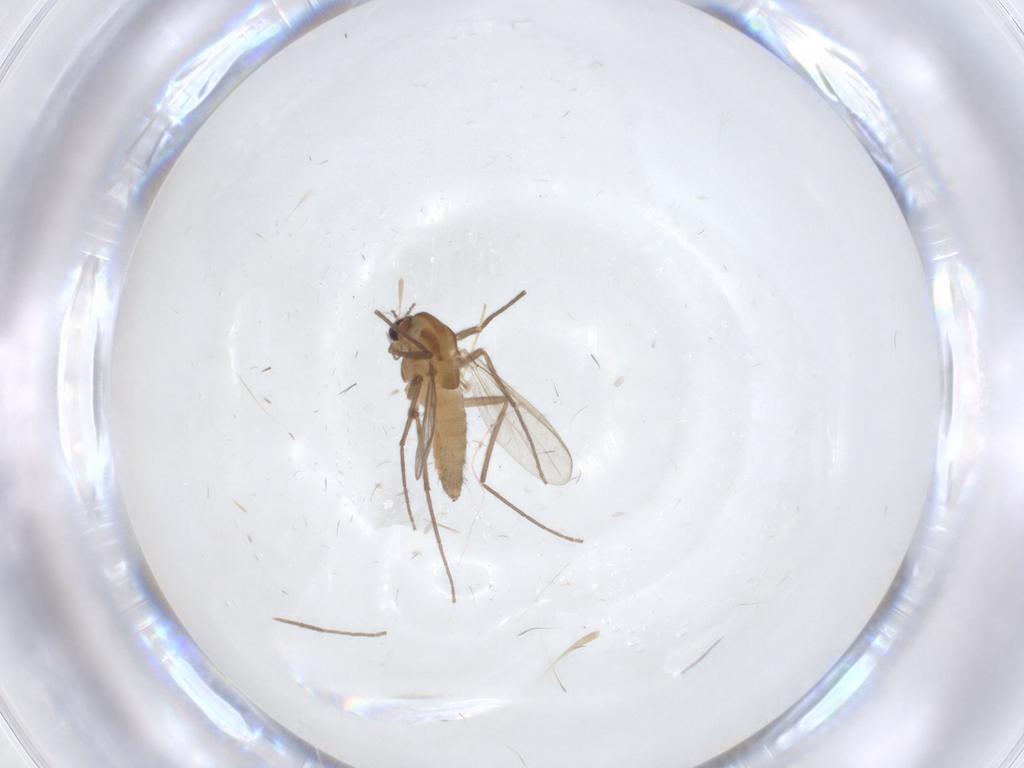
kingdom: Animalia
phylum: Arthropoda
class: Insecta
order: Diptera
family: Chironomidae
